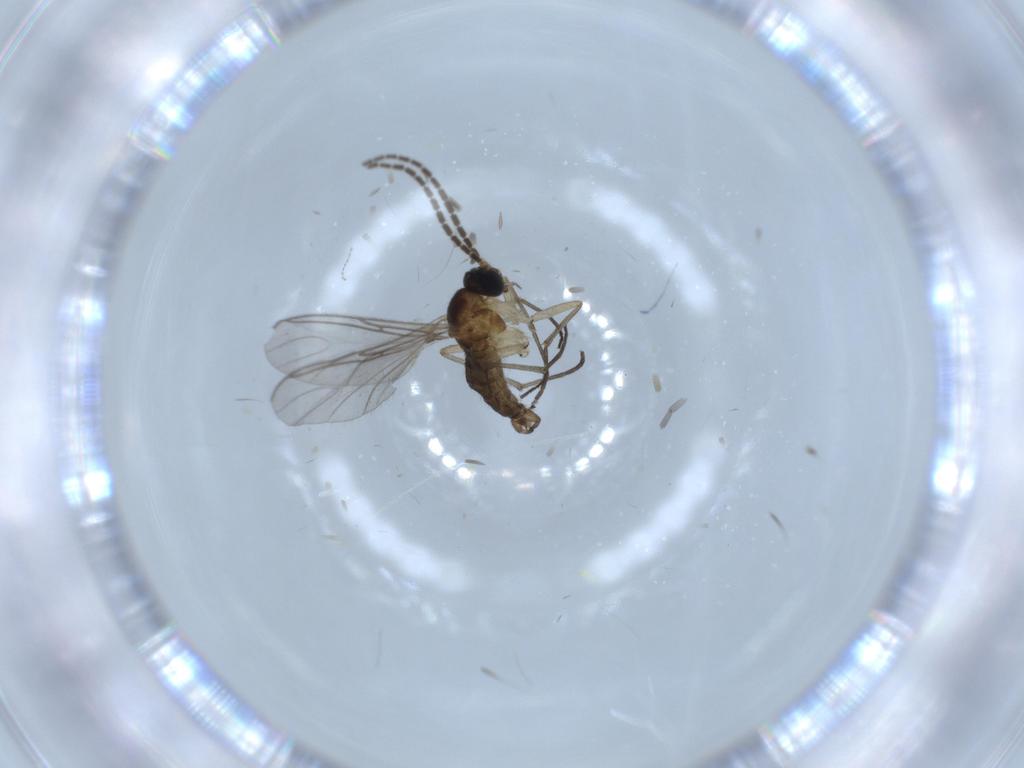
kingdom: Animalia
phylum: Arthropoda
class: Insecta
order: Diptera
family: Sciaridae
